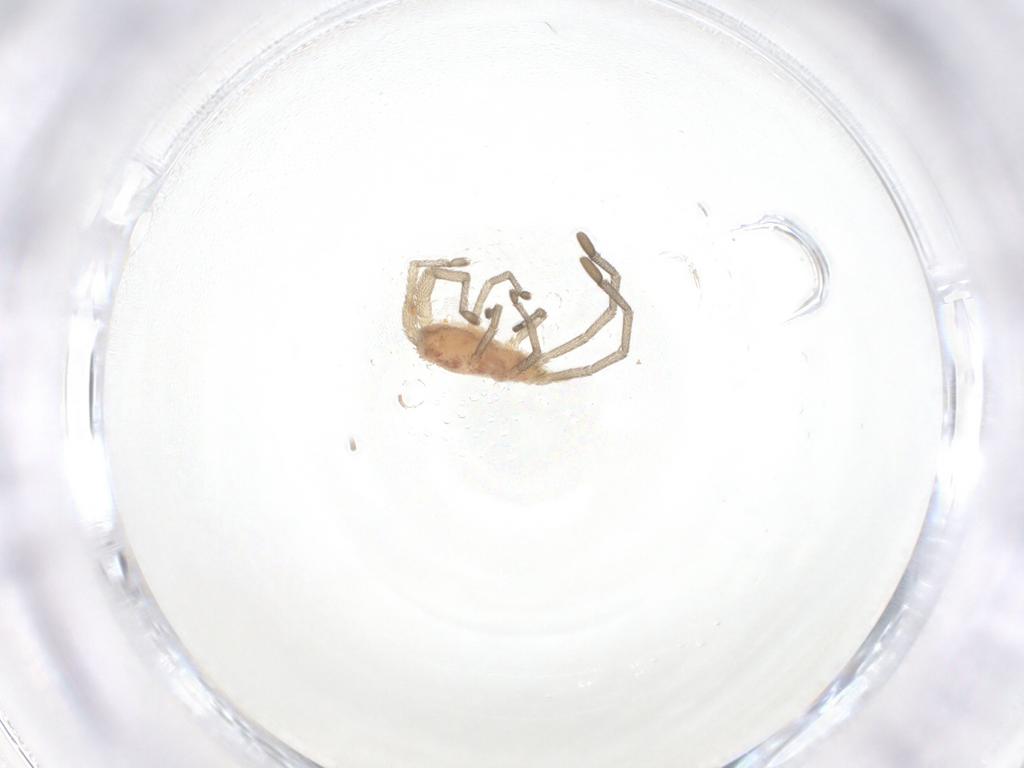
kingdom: Animalia
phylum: Arthropoda
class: Arachnida
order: Trombidiformes
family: Smarididae
